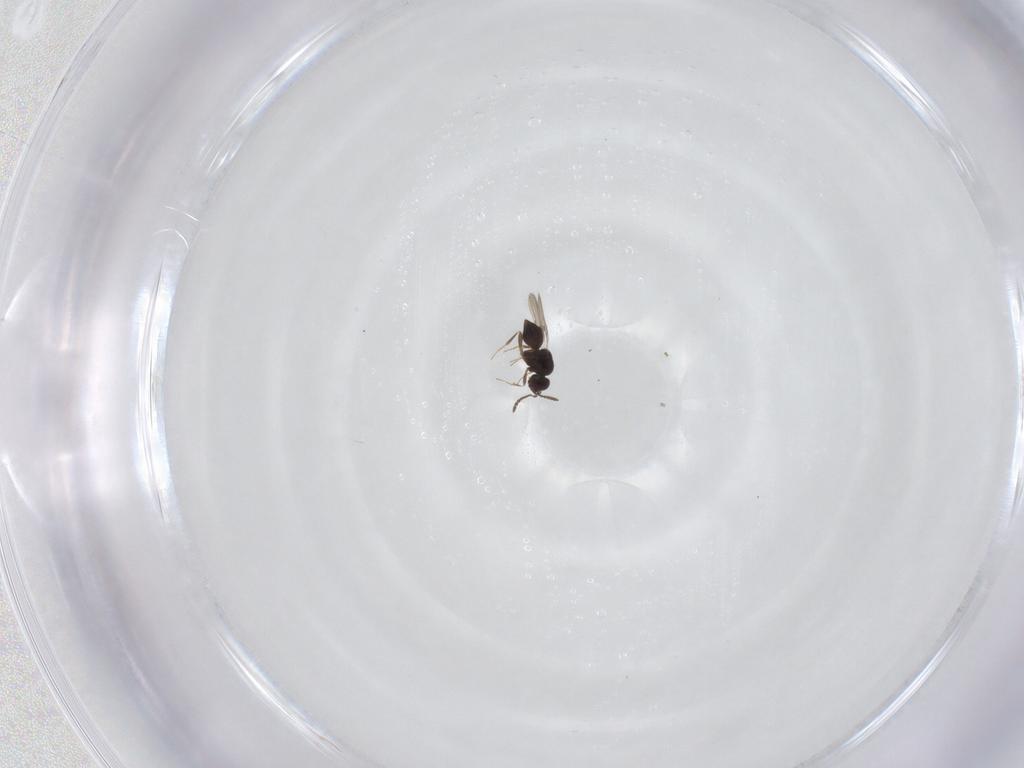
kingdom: Animalia
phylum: Arthropoda
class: Insecta
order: Hymenoptera
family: Ceraphronidae
